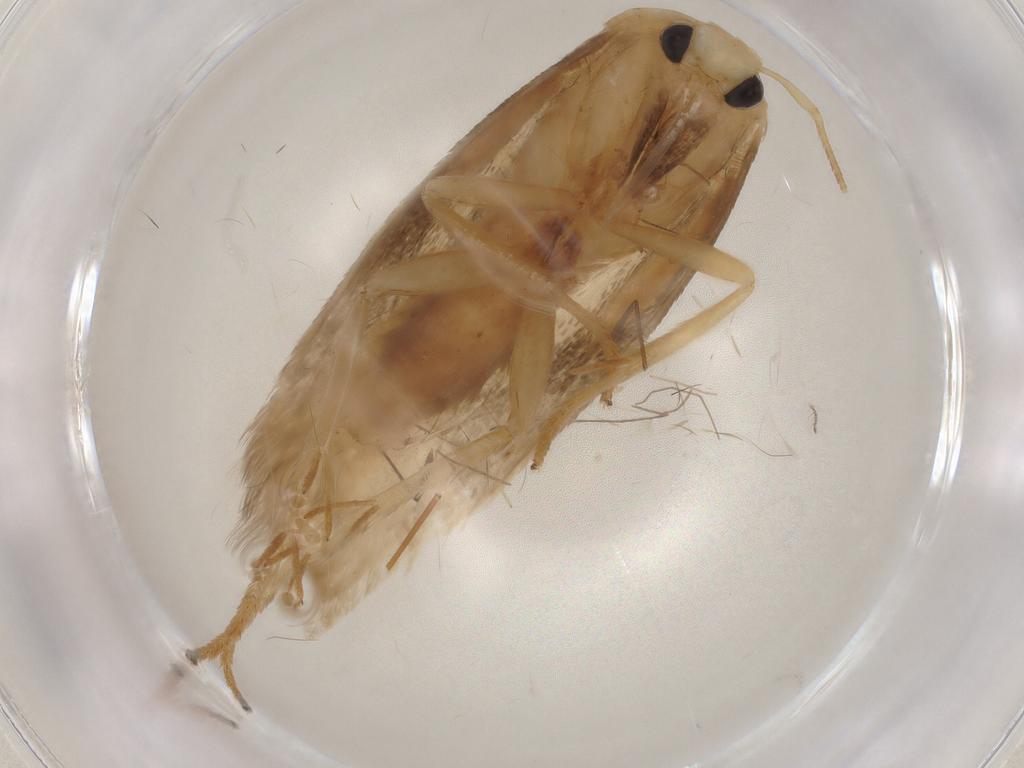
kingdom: Animalia
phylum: Arthropoda
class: Insecta
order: Lepidoptera
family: Geometridae
